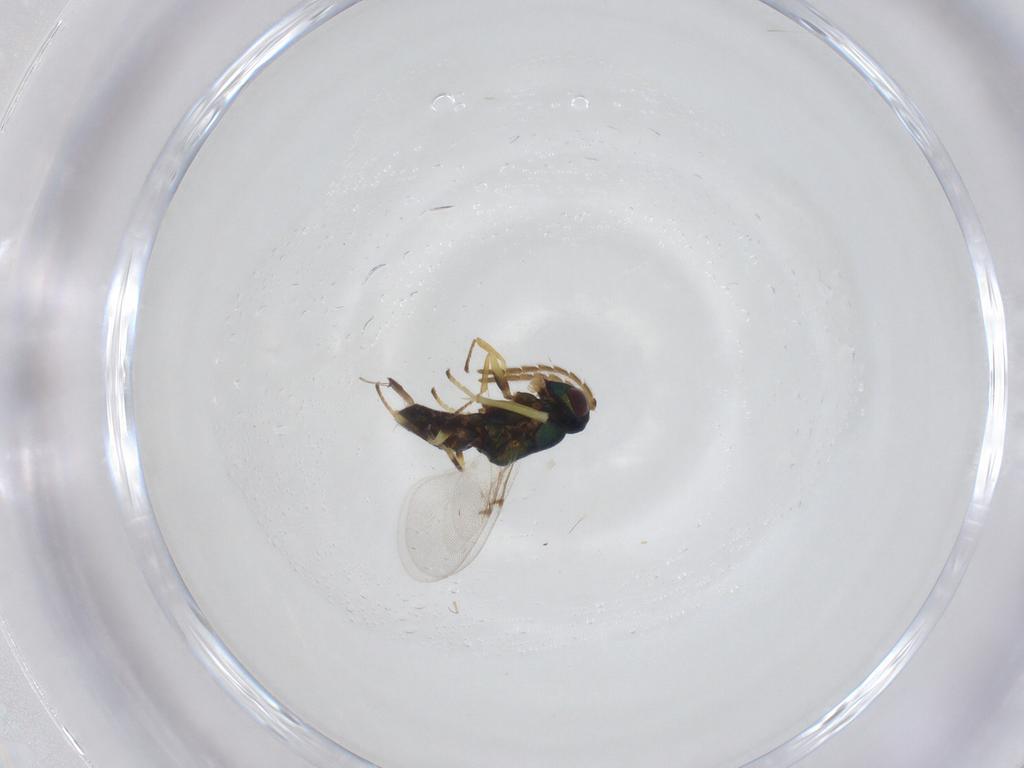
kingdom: Animalia
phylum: Arthropoda
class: Insecta
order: Hymenoptera
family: Encyrtidae
